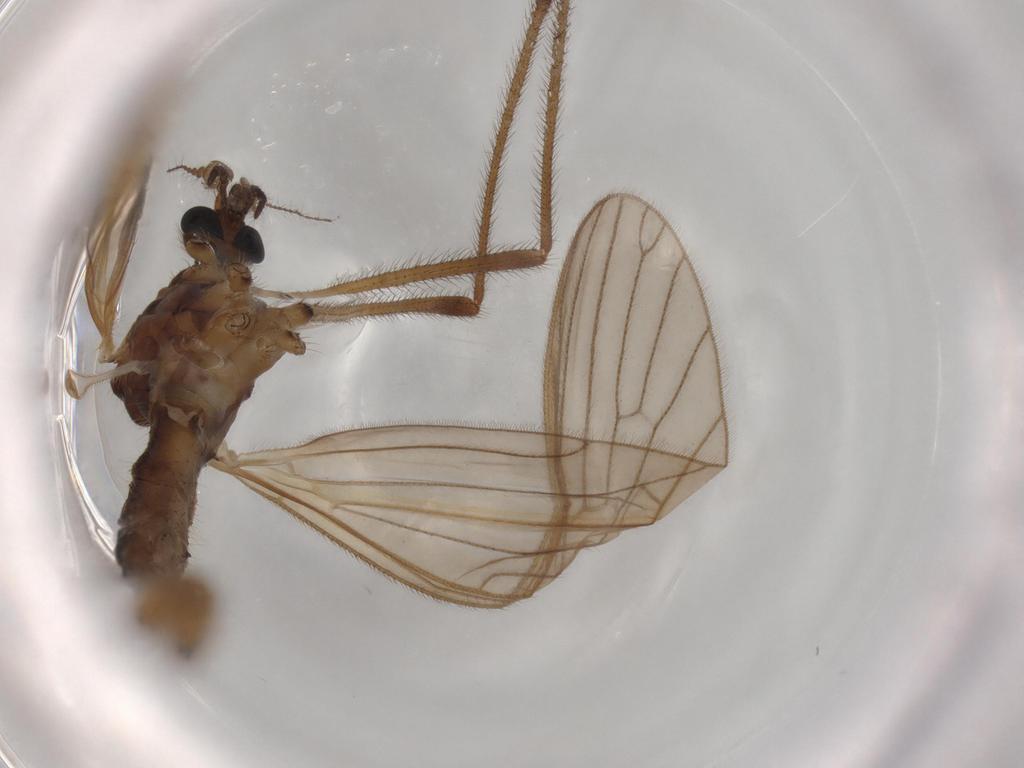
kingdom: Animalia
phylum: Arthropoda
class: Insecta
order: Diptera
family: Limoniidae
